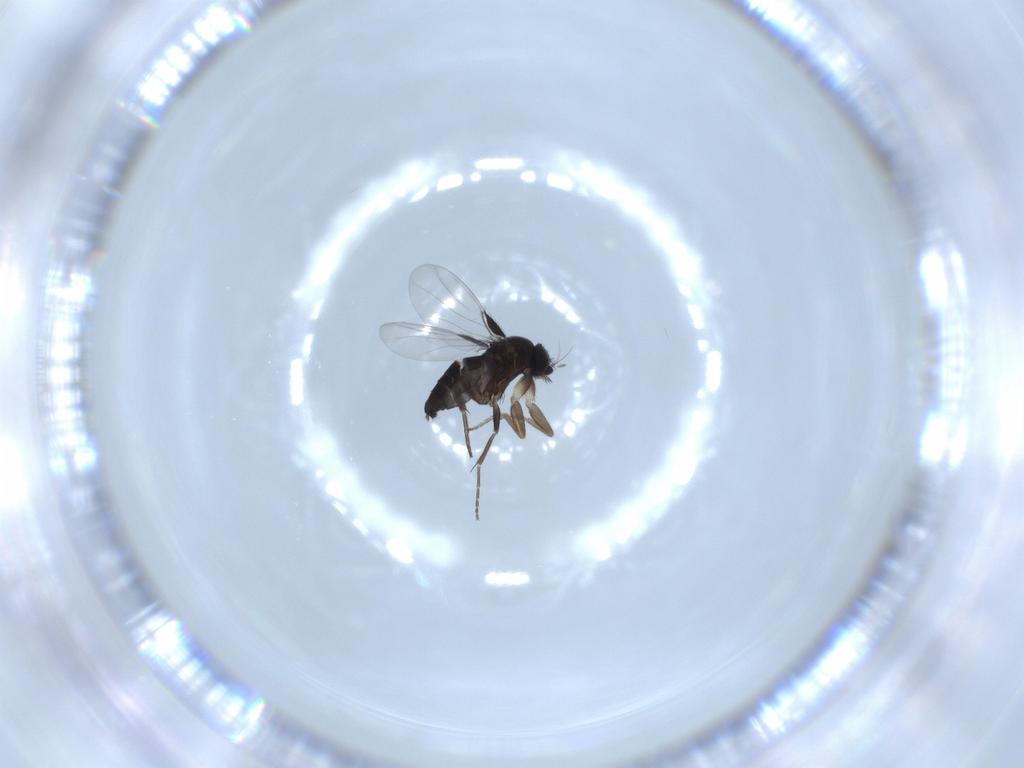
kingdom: Animalia
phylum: Arthropoda
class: Insecta
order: Diptera
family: Phoridae
